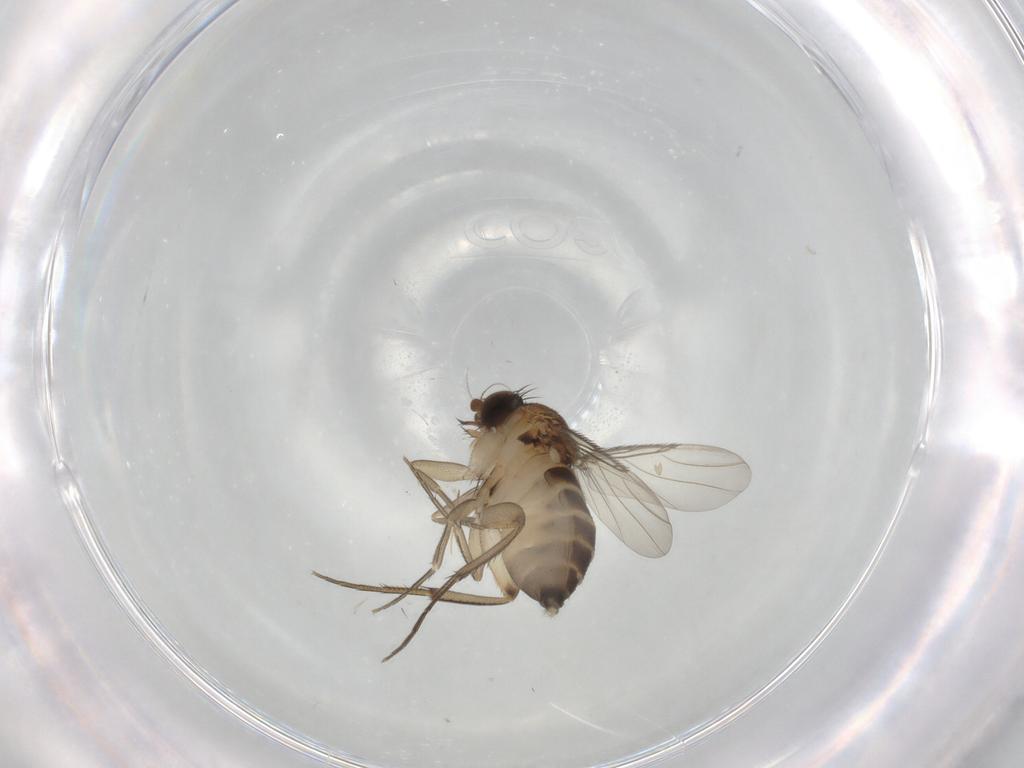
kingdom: Animalia
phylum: Arthropoda
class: Insecta
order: Diptera
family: Phoridae
